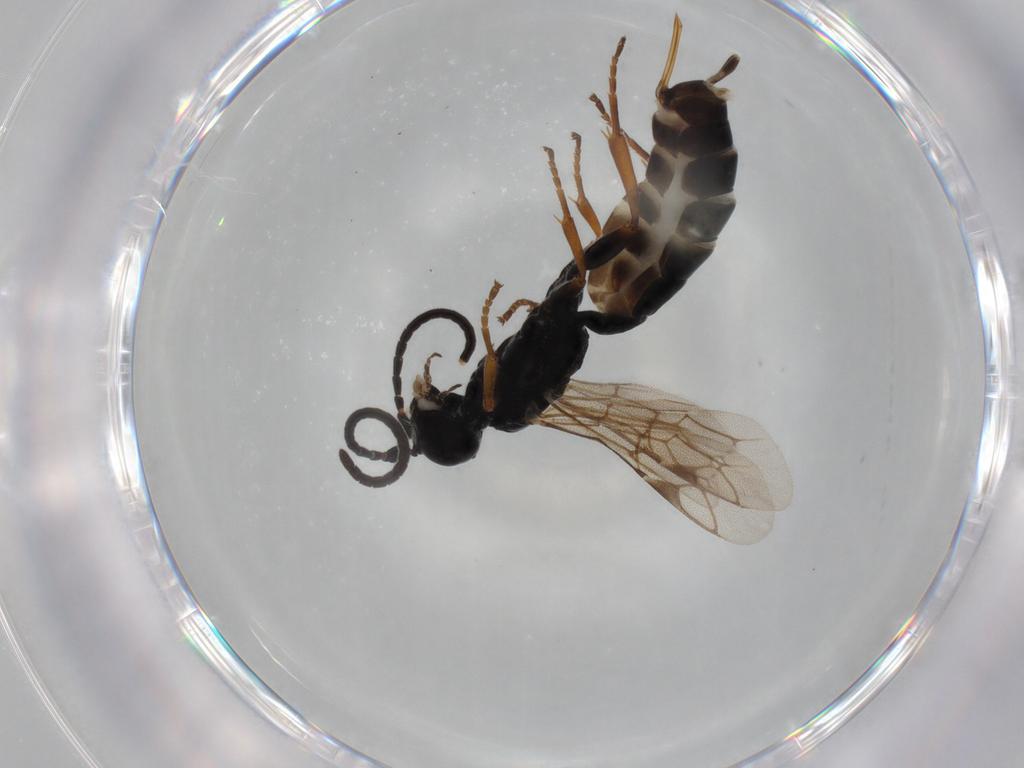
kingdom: Animalia
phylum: Arthropoda
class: Insecta
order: Hymenoptera
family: Ichneumonidae
